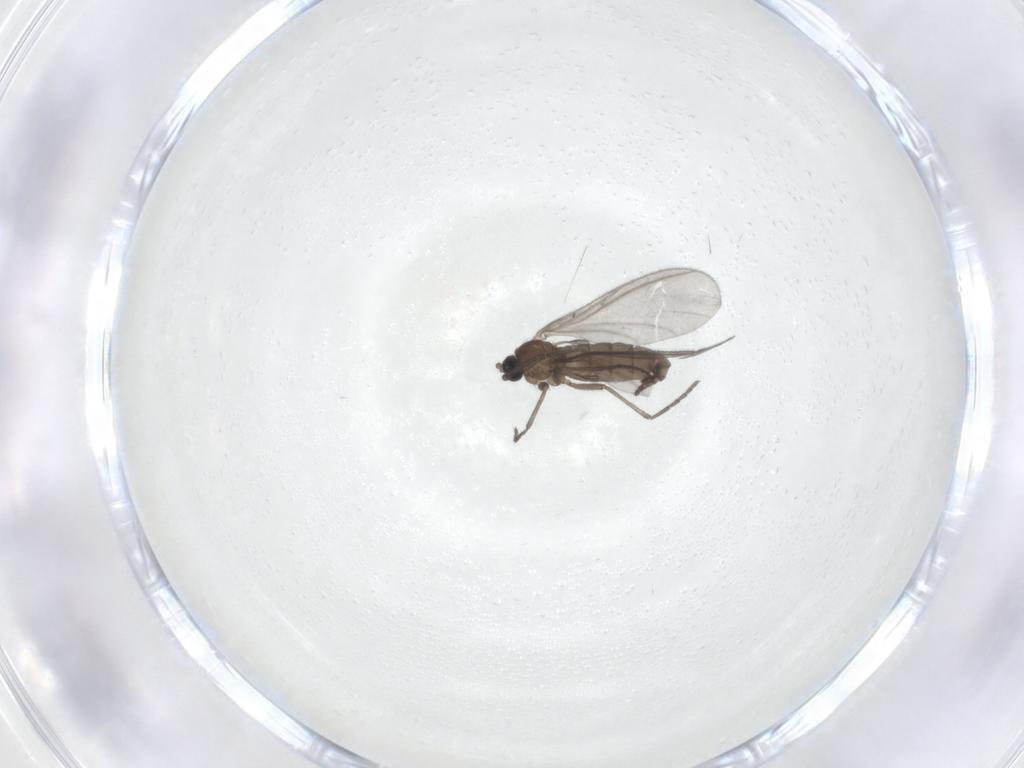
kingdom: Animalia
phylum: Arthropoda
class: Insecta
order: Diptera
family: Sciaridae
